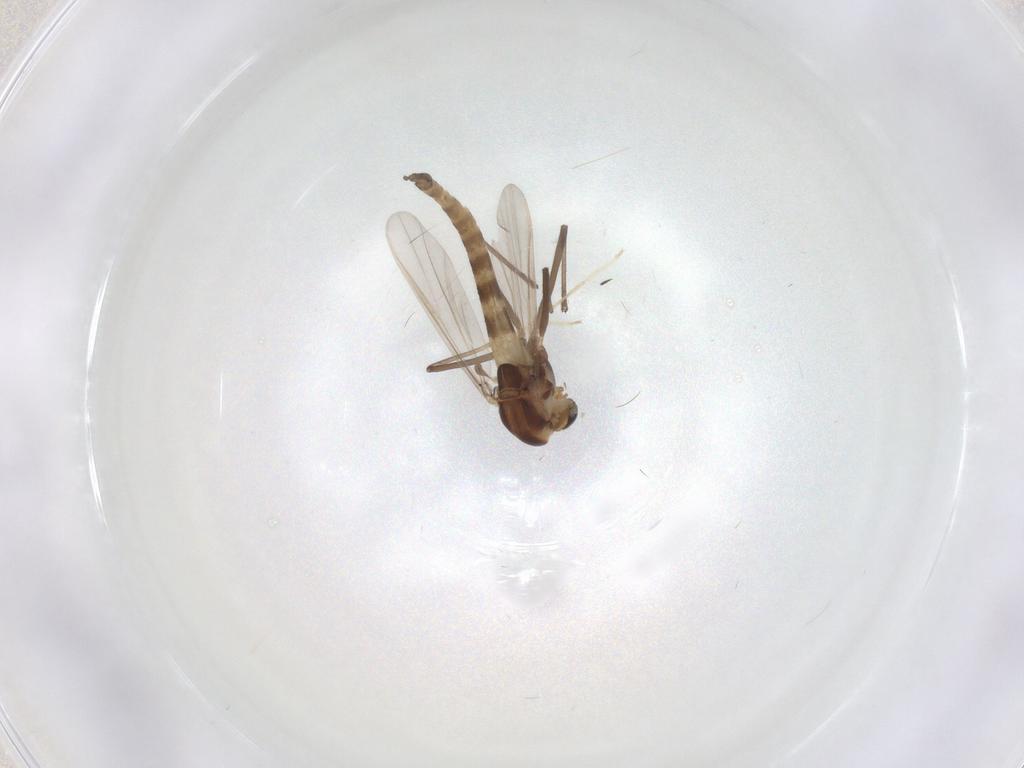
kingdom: Animalia
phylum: Arthropoda
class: Insecta
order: Diptera
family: Chironomidae
